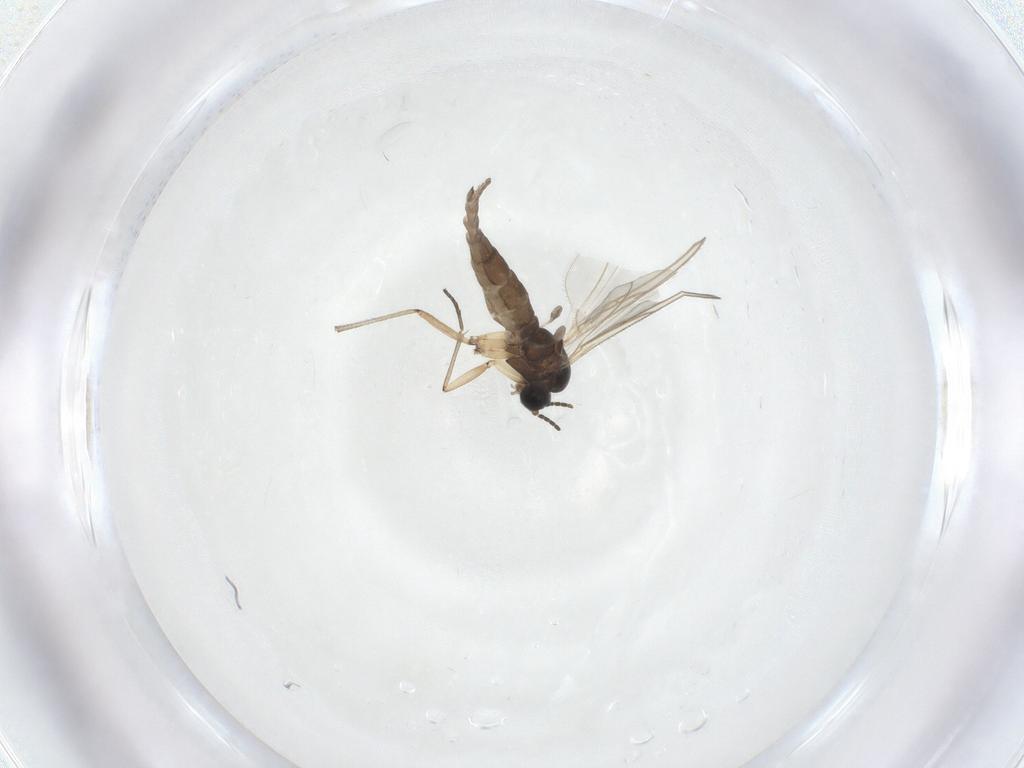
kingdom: Animalia
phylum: Arthropoda
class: Insecta
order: Diptera
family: Sciaridae
